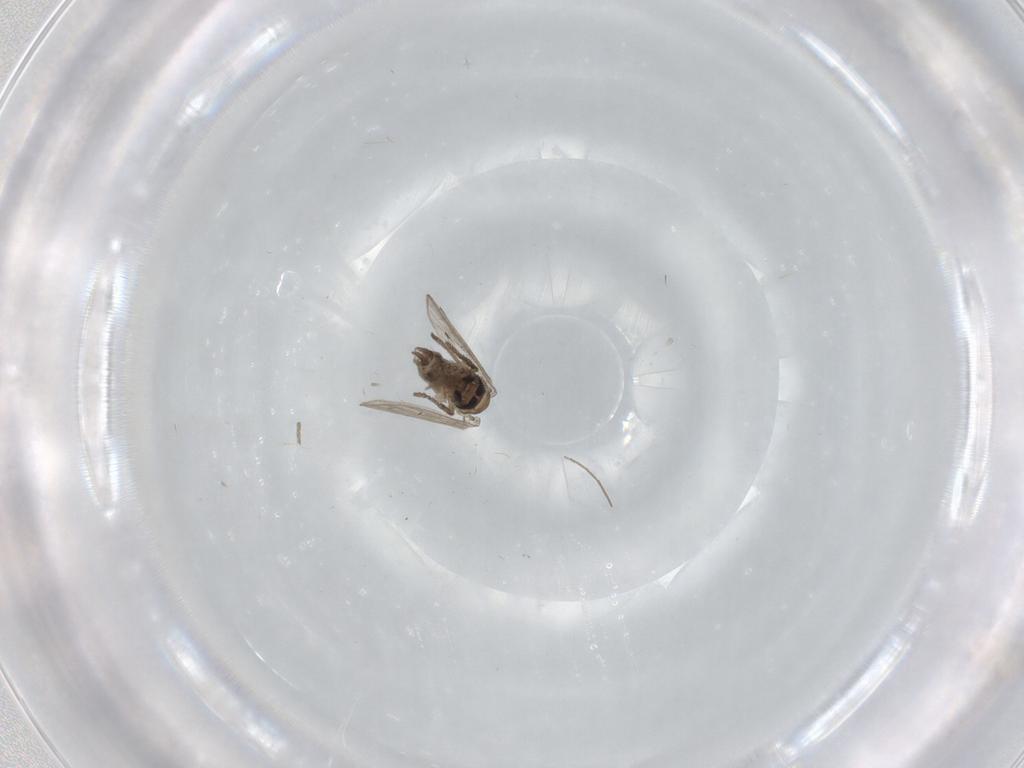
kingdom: Animalia
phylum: Arthropoda
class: Insecta
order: Diptera
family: Psychodidae
